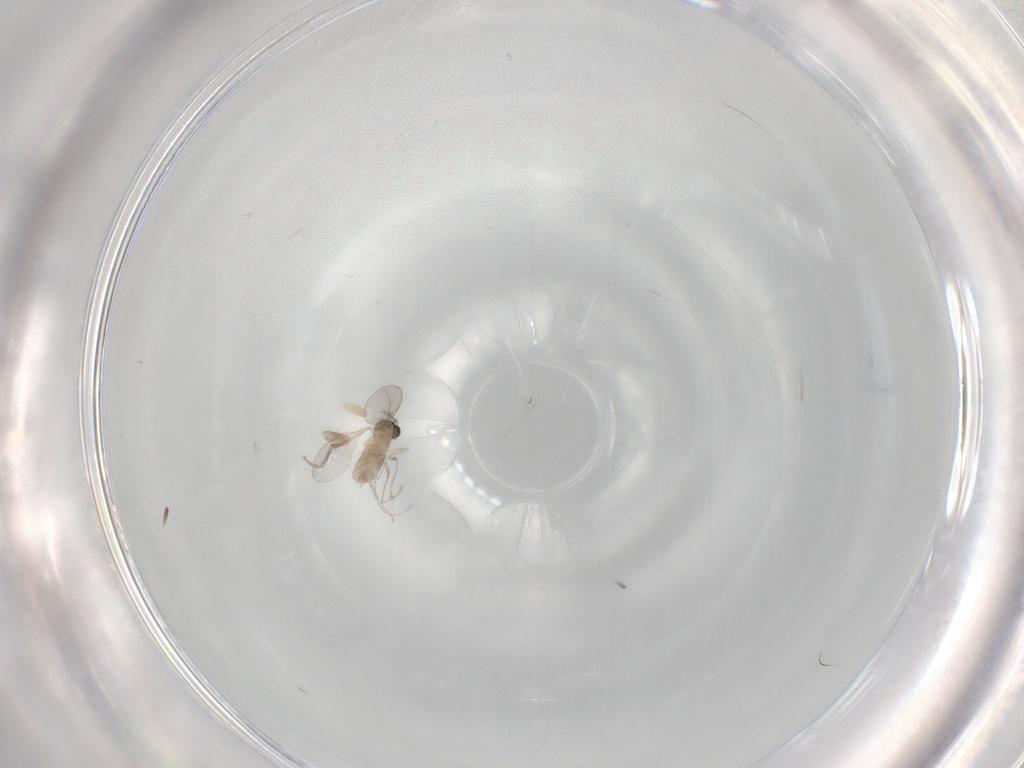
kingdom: Animalia
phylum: Arthropoda
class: Insecta
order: Diptera
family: Cecidomyiidae
